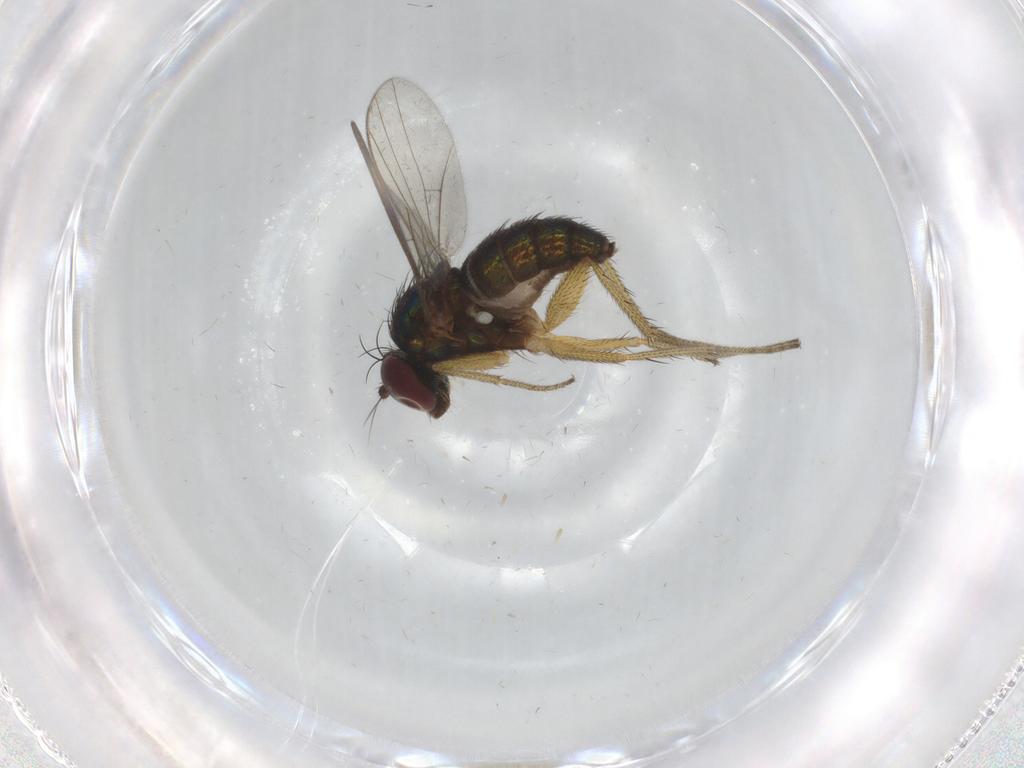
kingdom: Animalia
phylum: Arthropoda
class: Insecta
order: Diptera
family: Dolichopodidae
